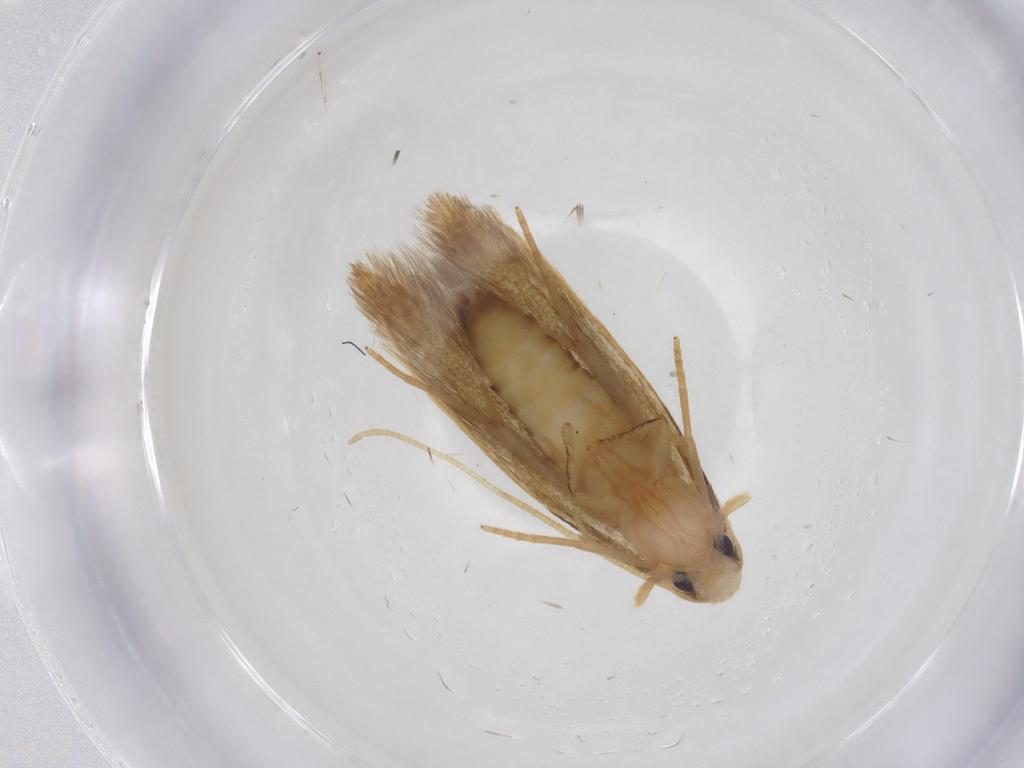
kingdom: Animalia
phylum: Arthropoda
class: Insecta
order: Lepidoptera
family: Tineidae
